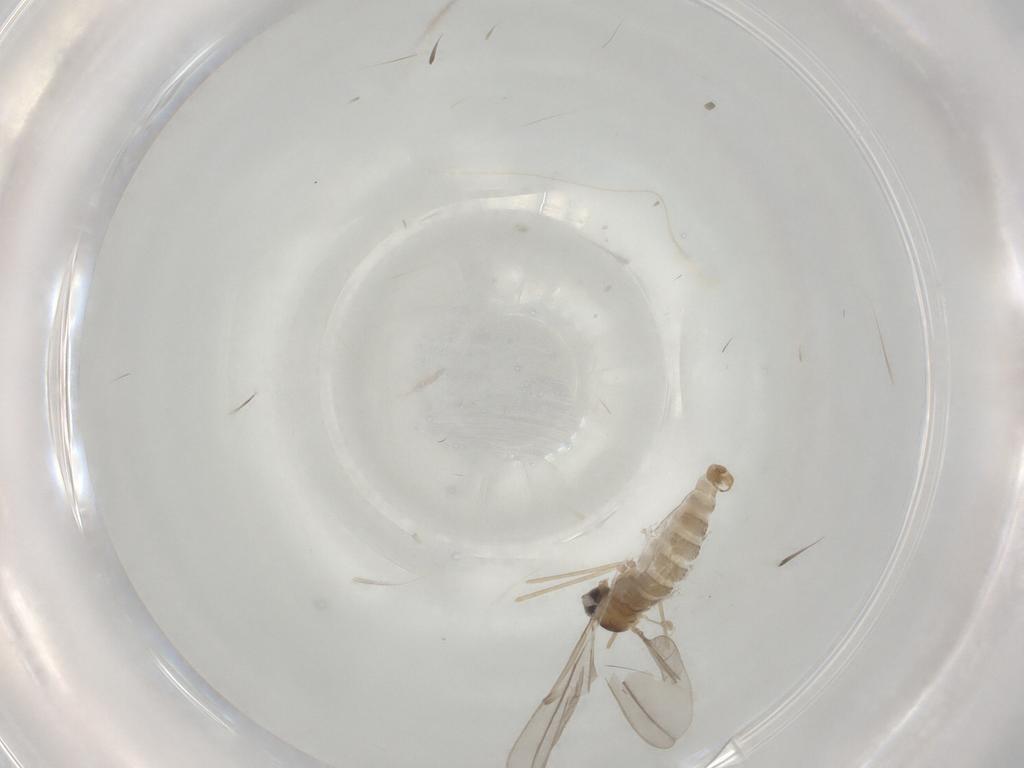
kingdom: Animalia
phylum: Arthropoda
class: Insecta
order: Diptera
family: Cecidomyiidae
